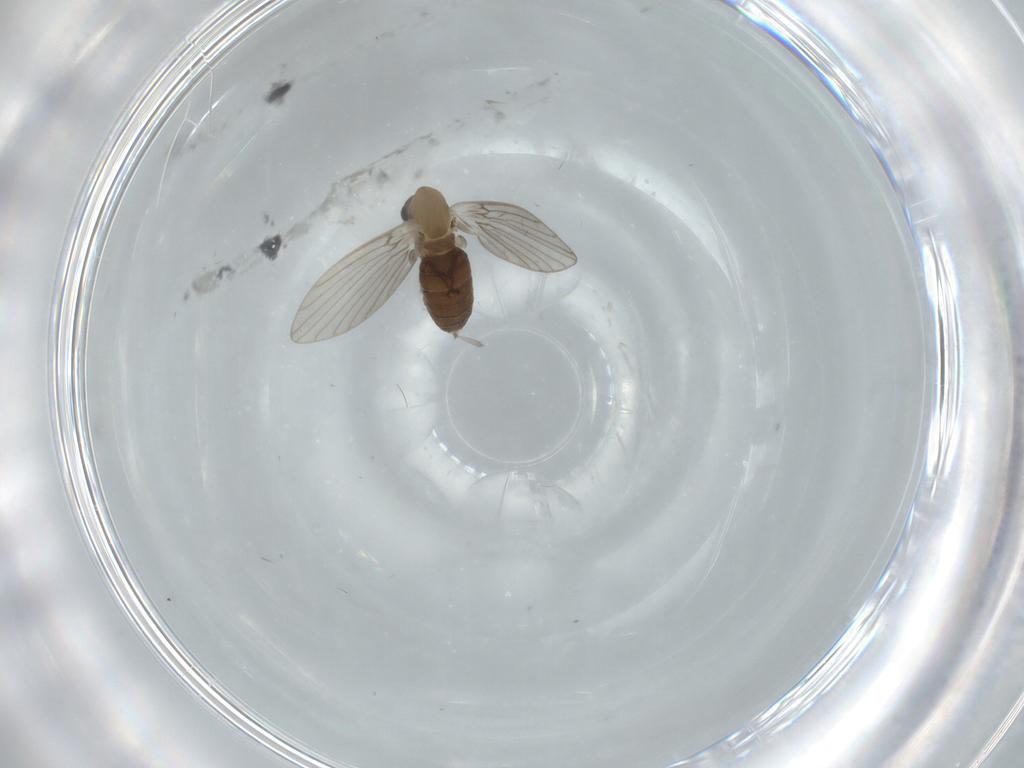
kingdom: Animalia
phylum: Arthropoda
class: Insecta
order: Diptera
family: Psychodidae
